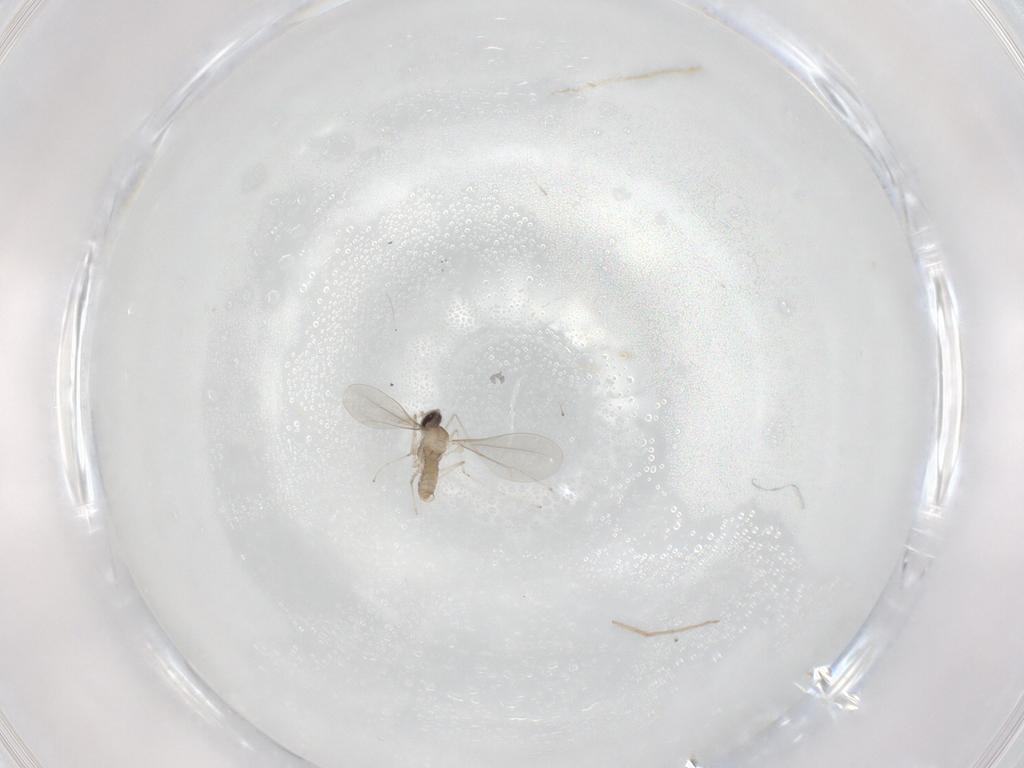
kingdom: Animalia
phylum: Arthropoda
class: Insecta
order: Diptera
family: Cecidomyiidae
